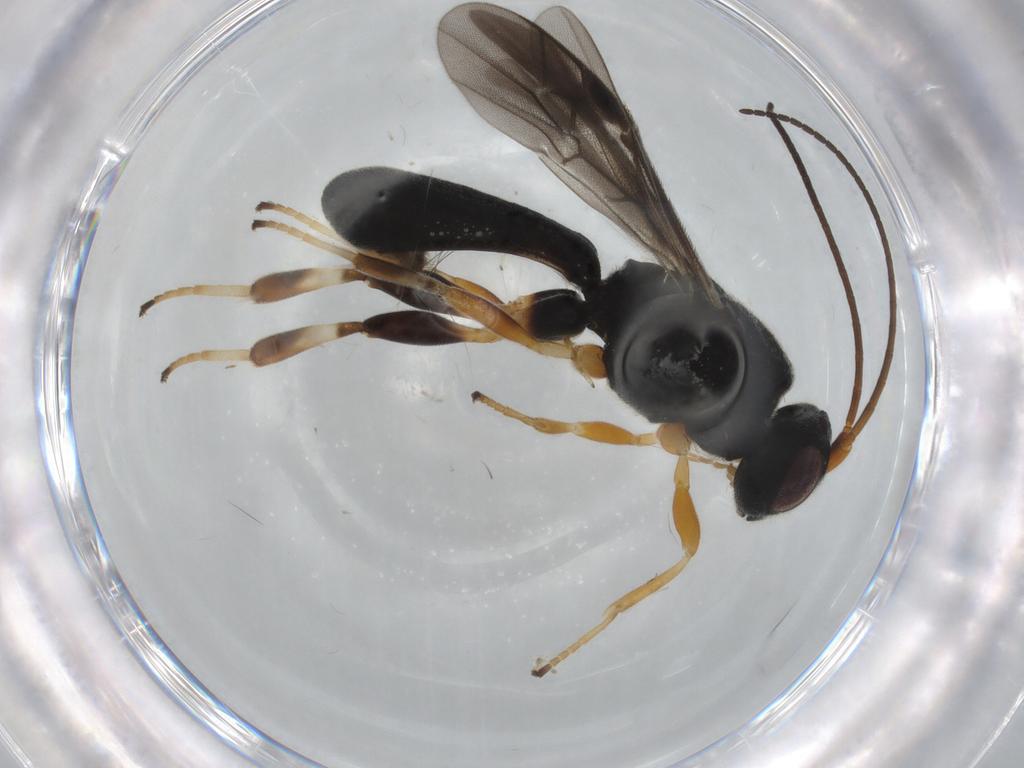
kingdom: Animalia
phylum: Arthropoda
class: Insecta
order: Hymenoptera
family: Braconidae
